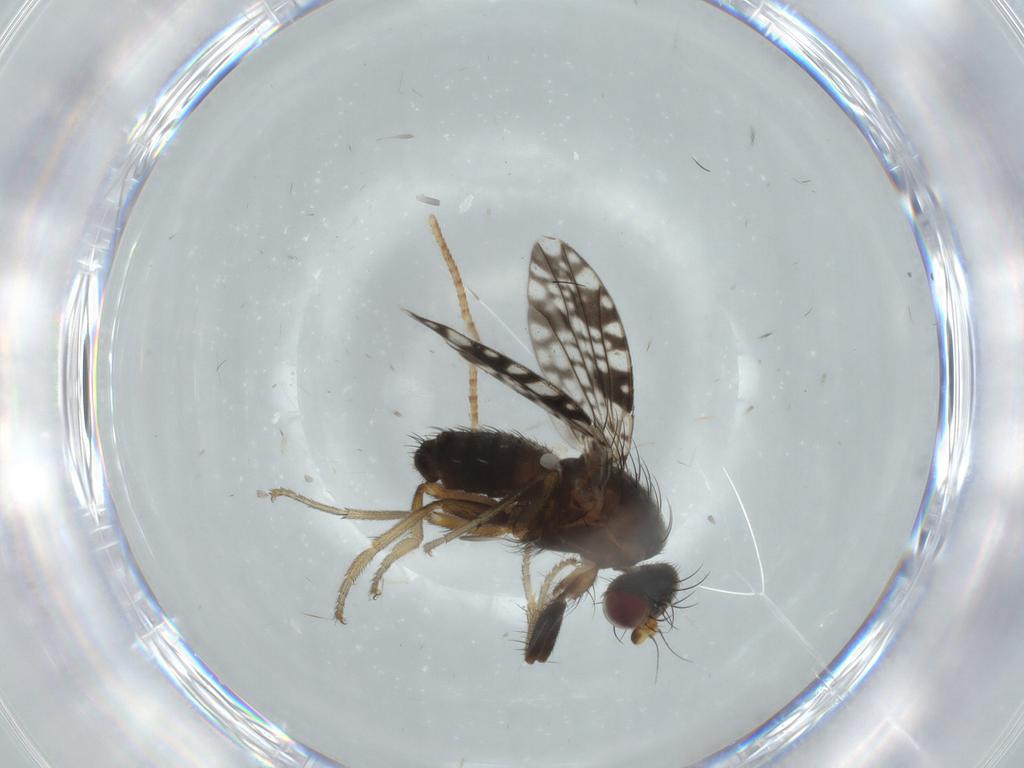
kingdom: Animalia
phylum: Arthropoda
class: Insecta
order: Diptera
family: Tephritidae
